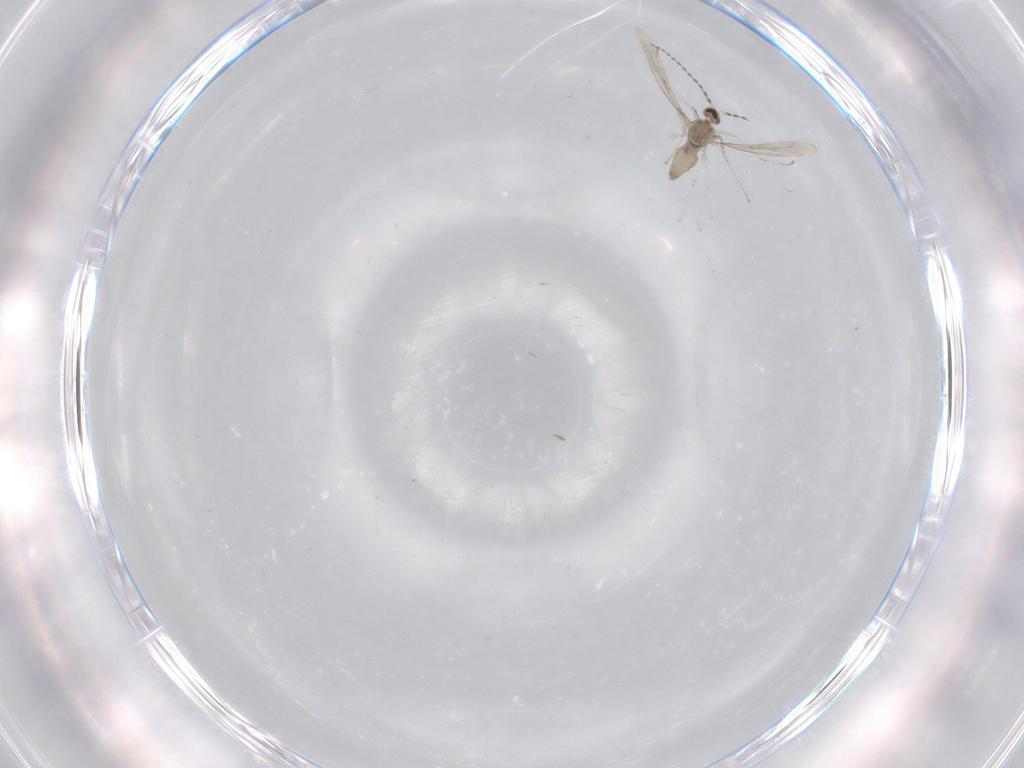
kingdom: Animalia
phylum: Arthropoda
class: Insecta
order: Diptera
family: Cecidomyiidae
